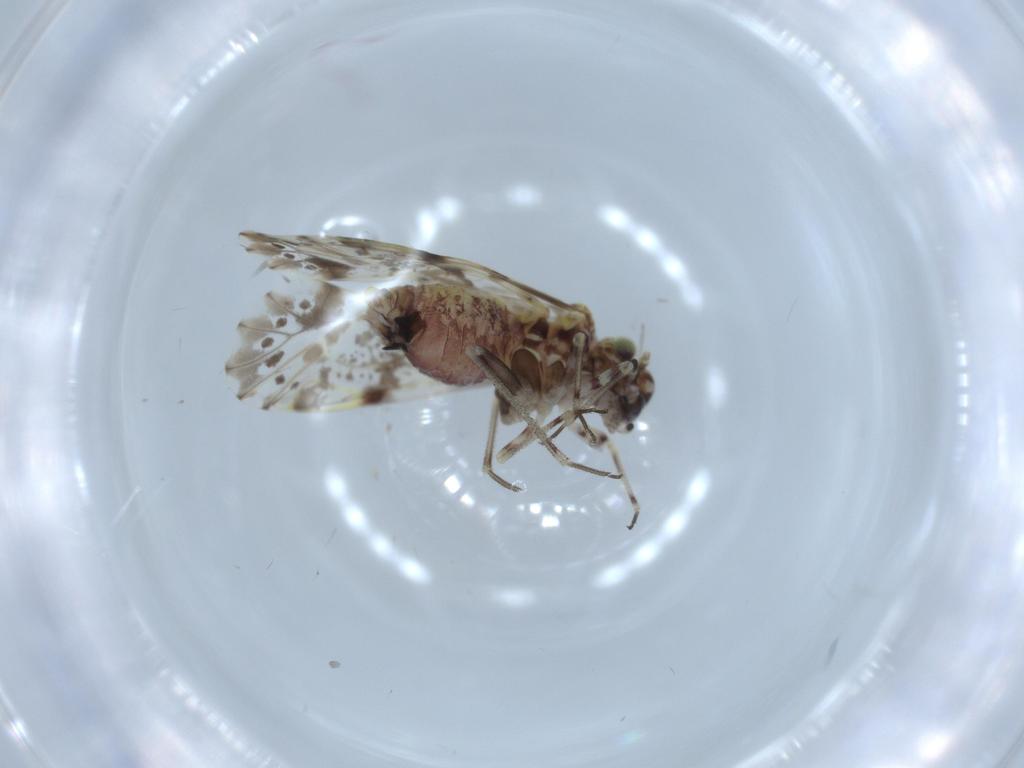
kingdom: Animalia
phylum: Arthropoda
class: Insecta
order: Psocodea
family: Psocidae
